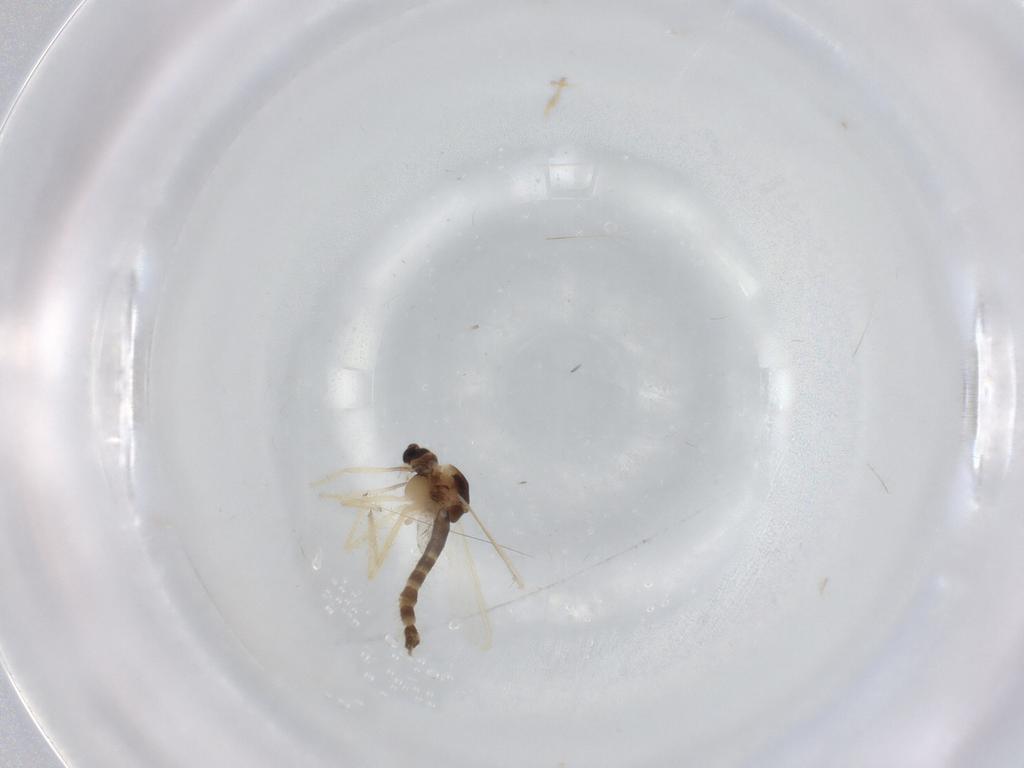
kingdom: Animalia
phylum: Arthropoda
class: Insecta
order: Diptera
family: Chironomidae
